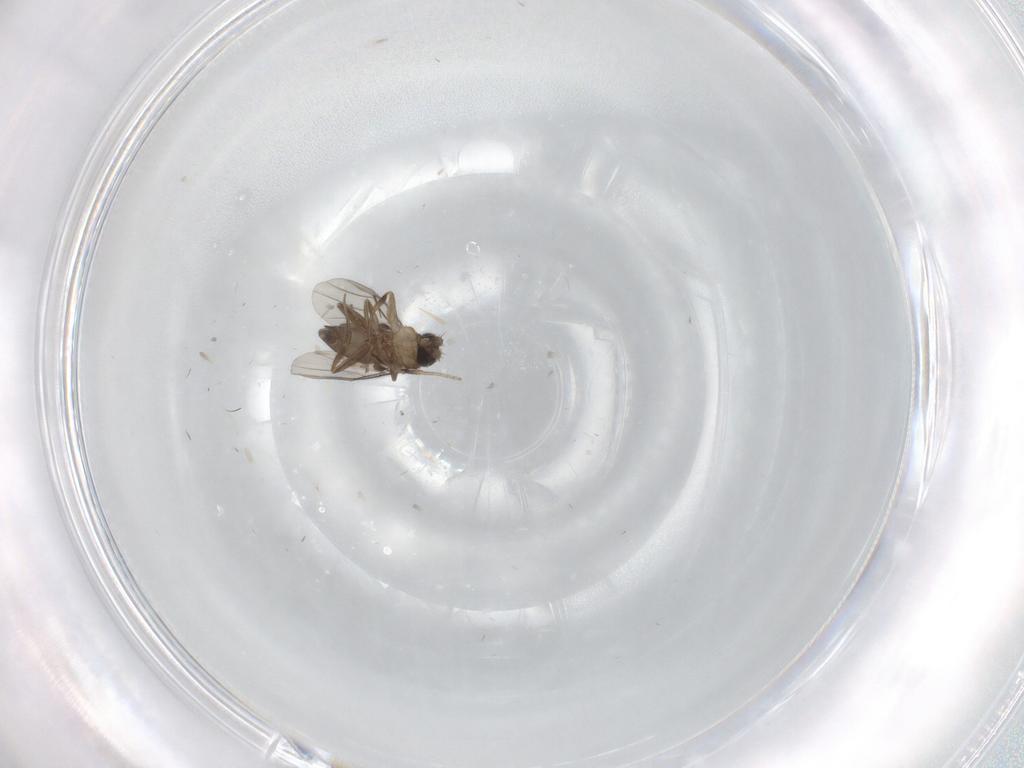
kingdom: Animalia
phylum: Arthropoda
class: Insecta
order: Diptera
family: Phoridae
